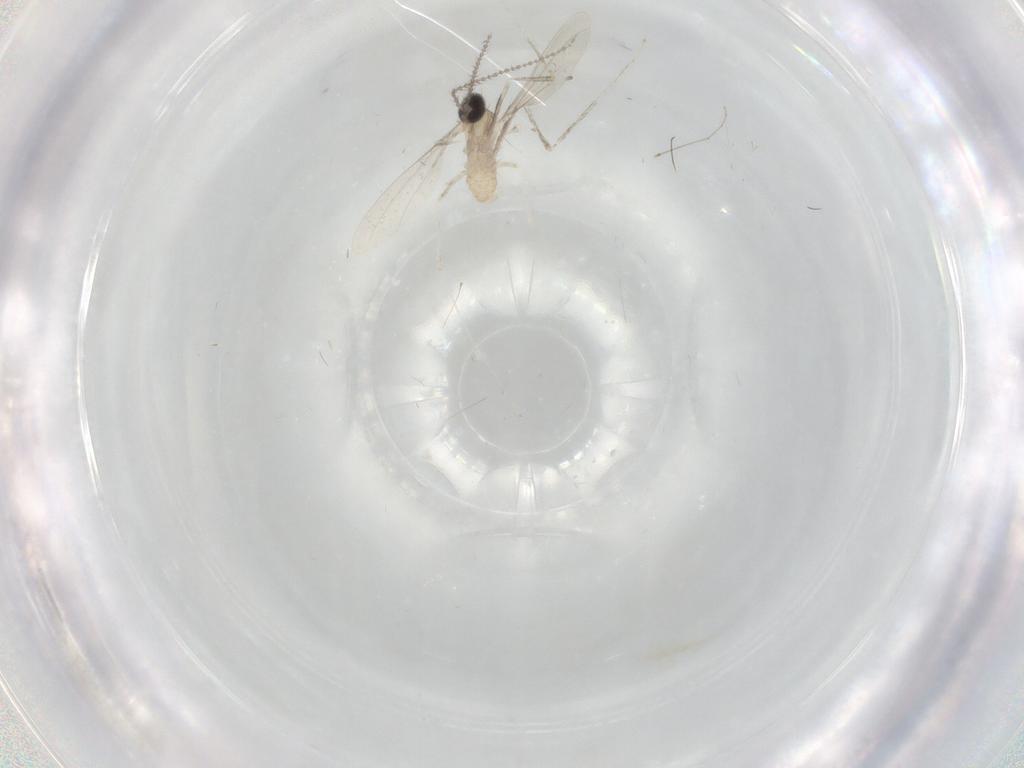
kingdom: Animalia
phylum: Arthropoda
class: Insecta
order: Diptera
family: Cecidomyiidae
